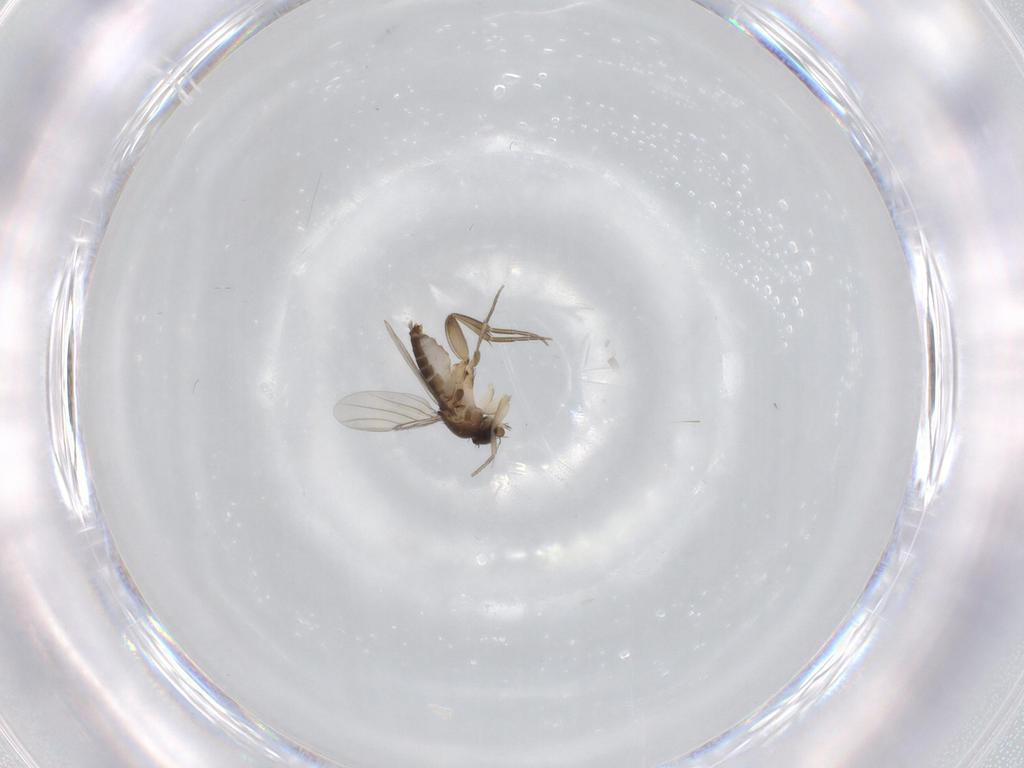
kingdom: Animalia
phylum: Arthropoda
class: Insecta
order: Diptera
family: Phoridae
